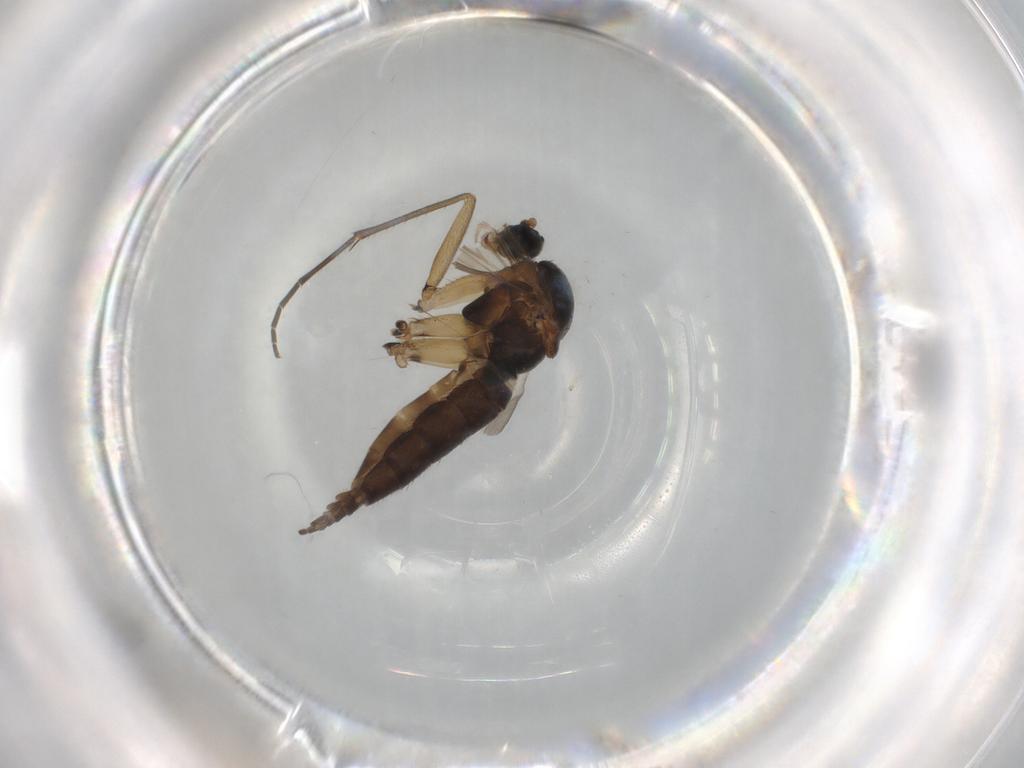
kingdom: Animalia
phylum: Arthropoda
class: Insecta
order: Diptera
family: Sciaridae
